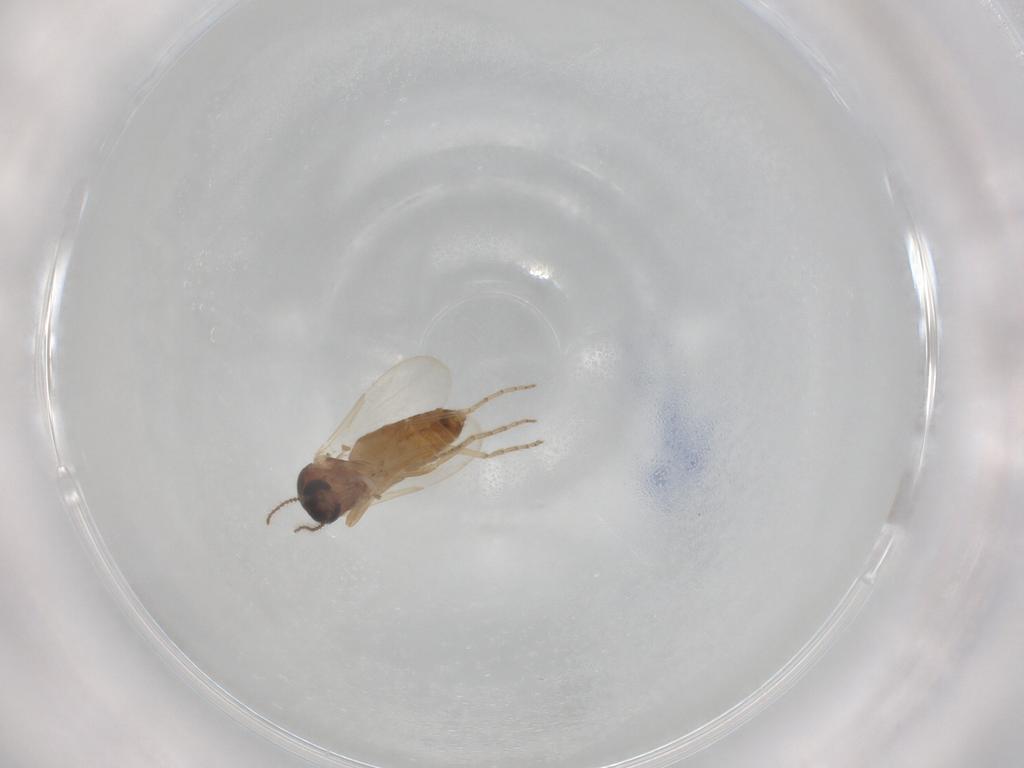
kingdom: Animalia
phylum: Arthropoda
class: Insecta
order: Diptera
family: Ceratopogonidae
